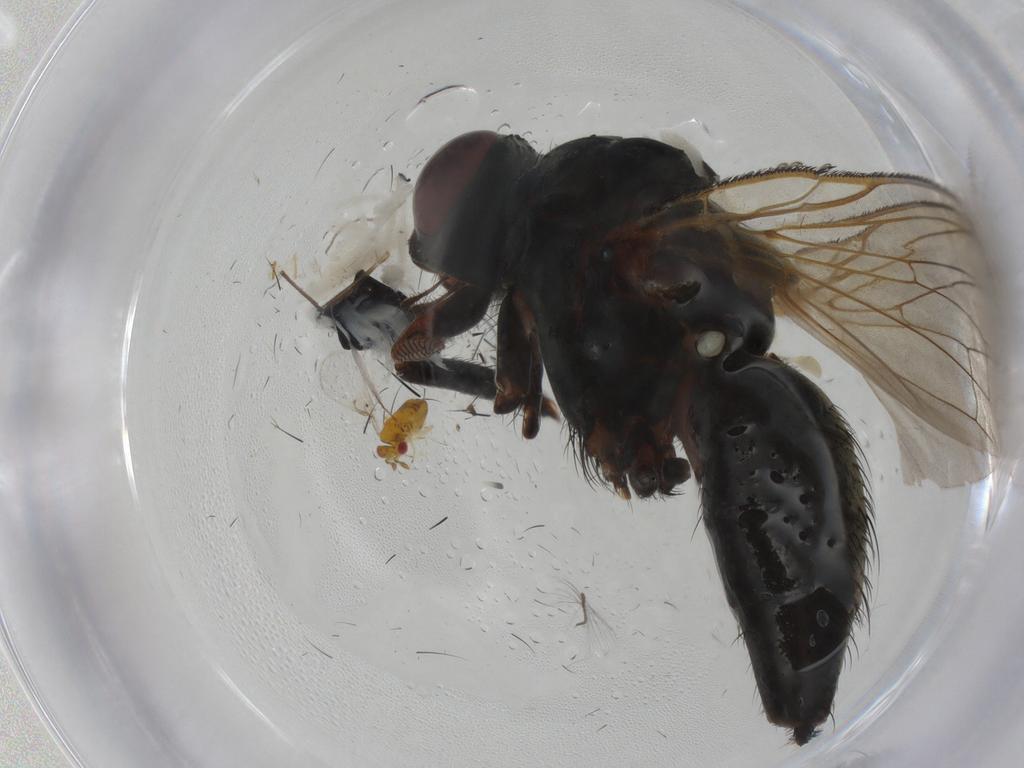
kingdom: Animalia
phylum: Arthropoda
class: Insecta
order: Diptera
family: Anthomyiidae
